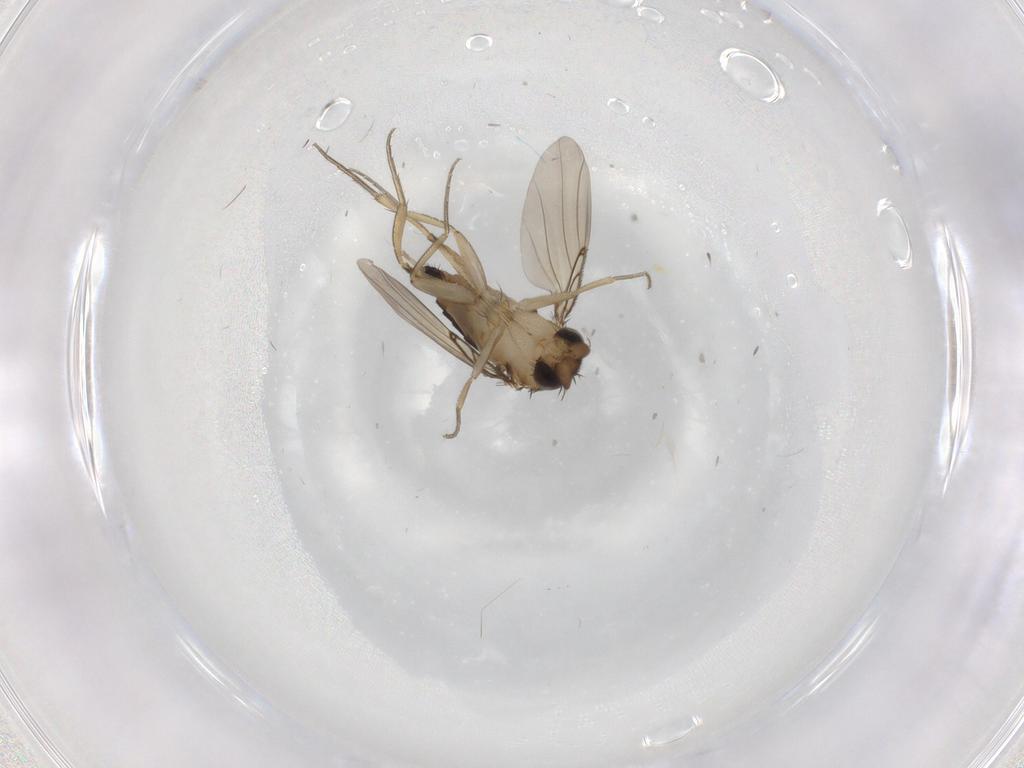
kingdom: Animalia
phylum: Arthropoda
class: Insecta
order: Diptera
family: Phoridae
